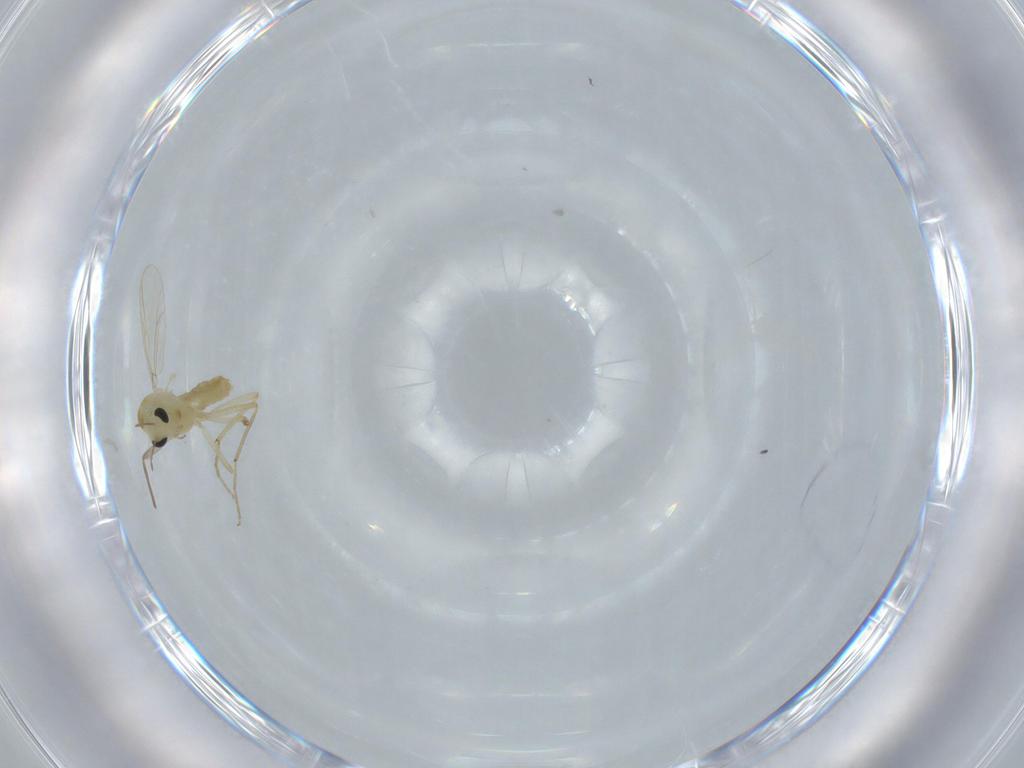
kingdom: Animalia
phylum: Arthropoda
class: Insecta
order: Diptera
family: Chironomidae
